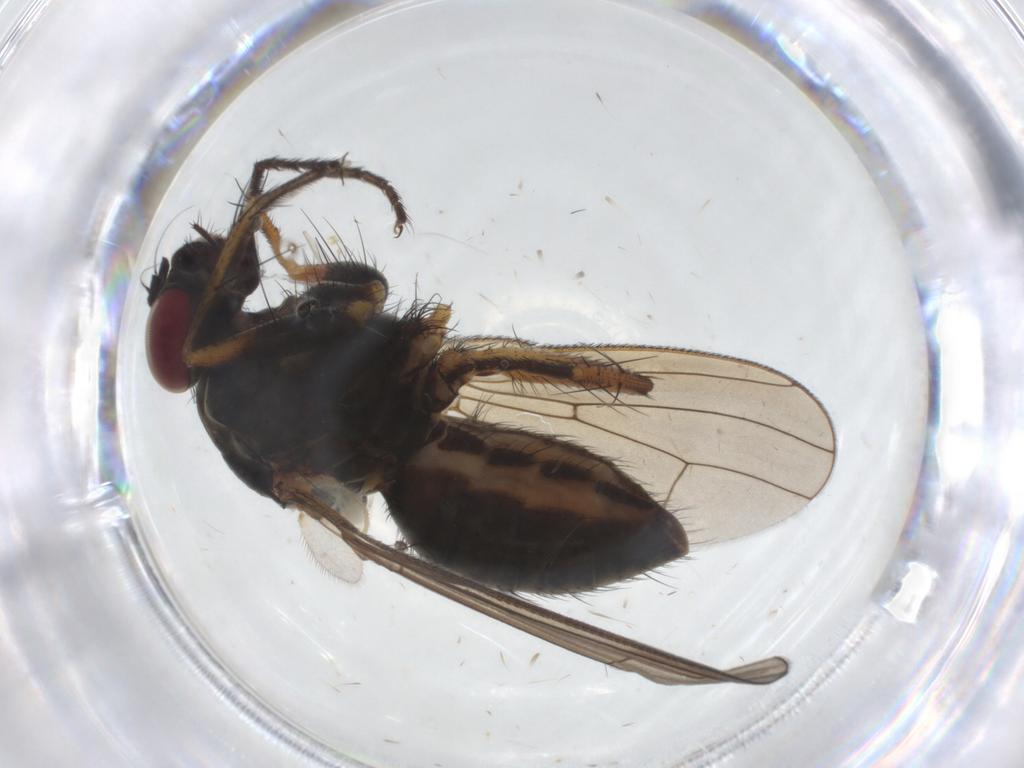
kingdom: Animalia
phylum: Arthropoda
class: Insecta
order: Diptera
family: Muscidae
